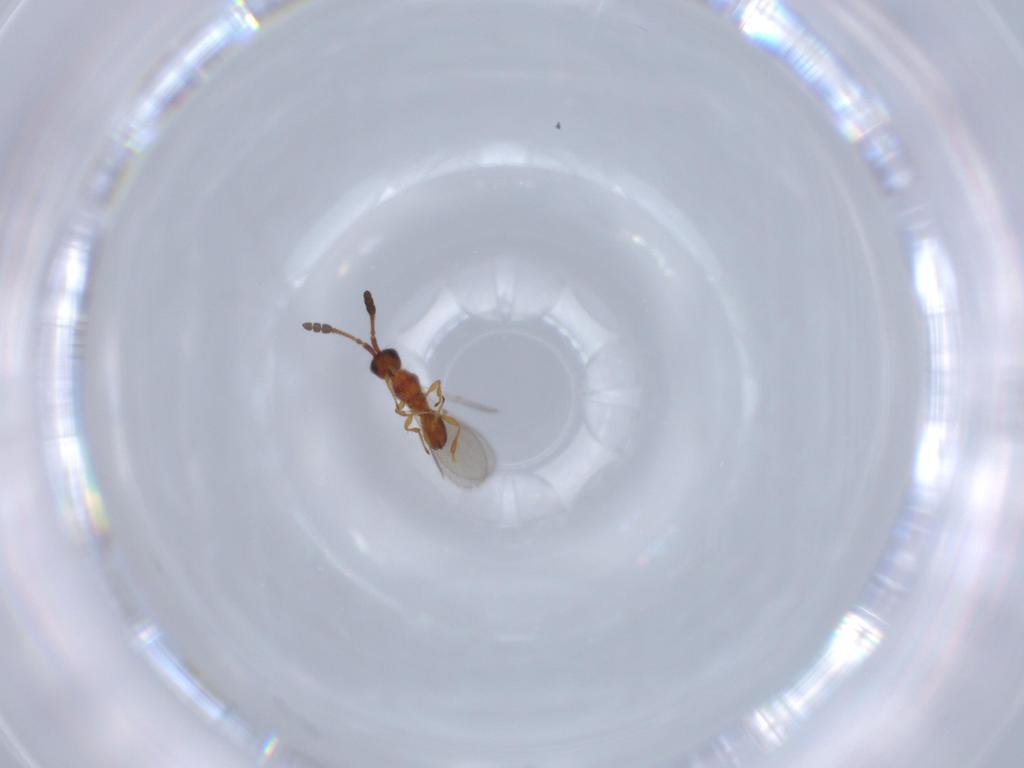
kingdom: Animalia
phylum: Arthropoda
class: Insecta
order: Hymenoptera
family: Diapriidae
